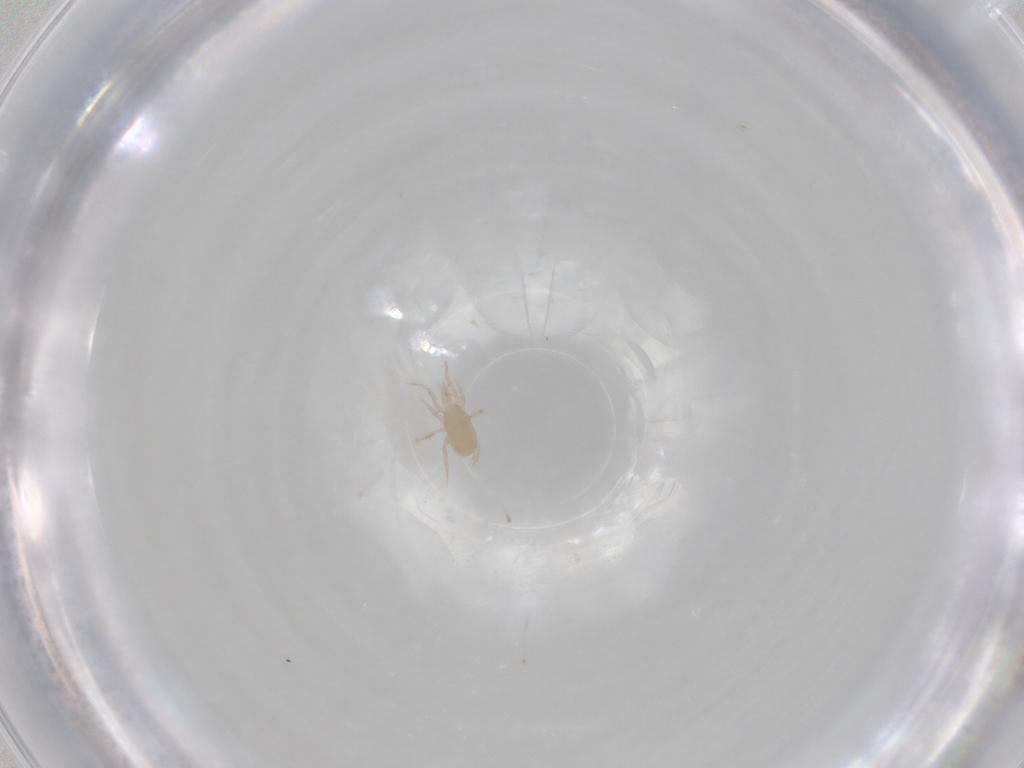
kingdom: Animalia
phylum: Arthropoda
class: Arachnida
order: Mesostigmata
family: Blattisociidae
